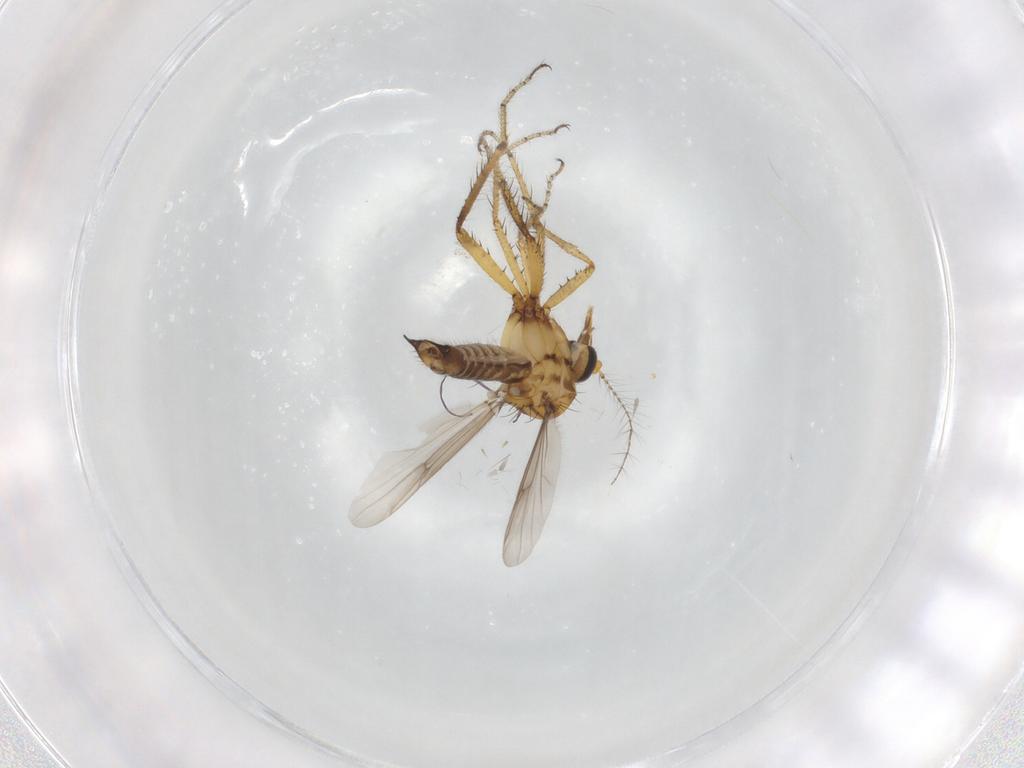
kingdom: Animalia
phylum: Arthropoda
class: Insecta
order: Diptera
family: Ceratopogonidae
